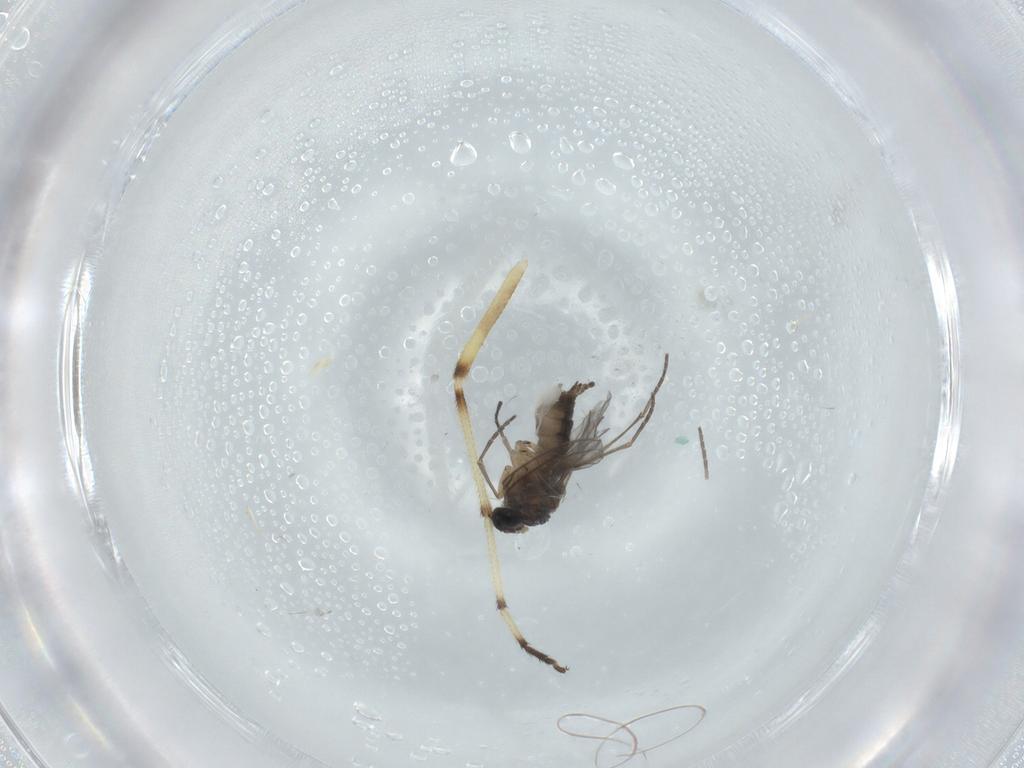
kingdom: Animalia
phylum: Arthropoda
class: Insecta
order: Diptera
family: Sciaridae
